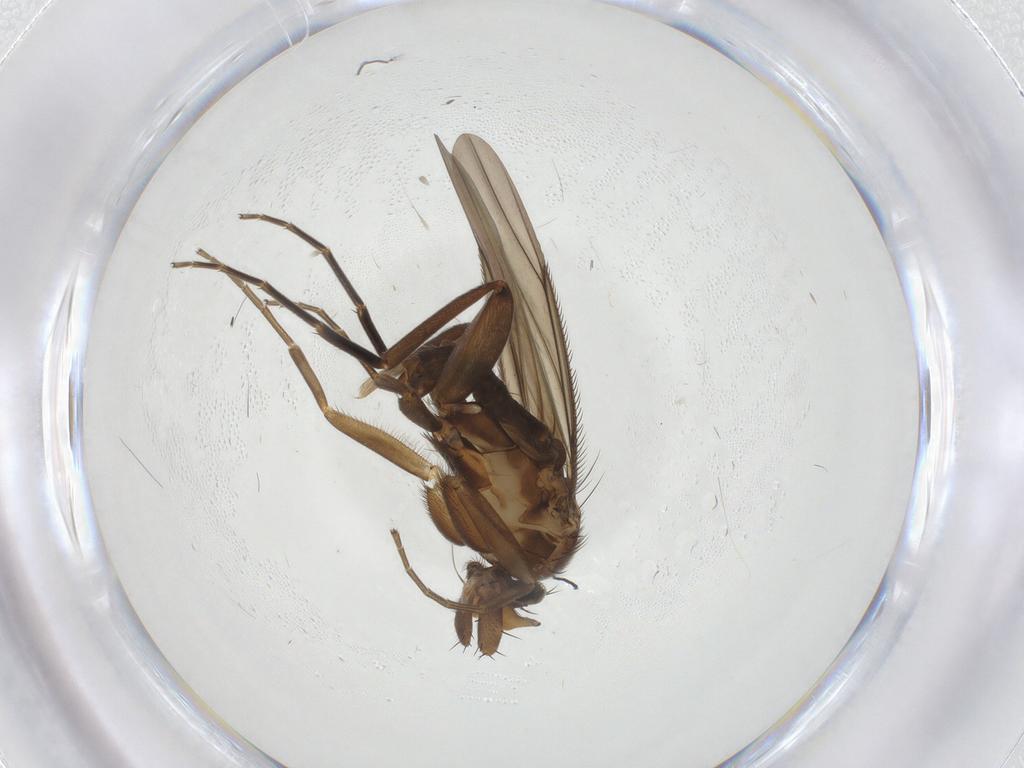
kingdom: Animalia
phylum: Arthropoda
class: Insecta
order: Diptera
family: Phoridae
